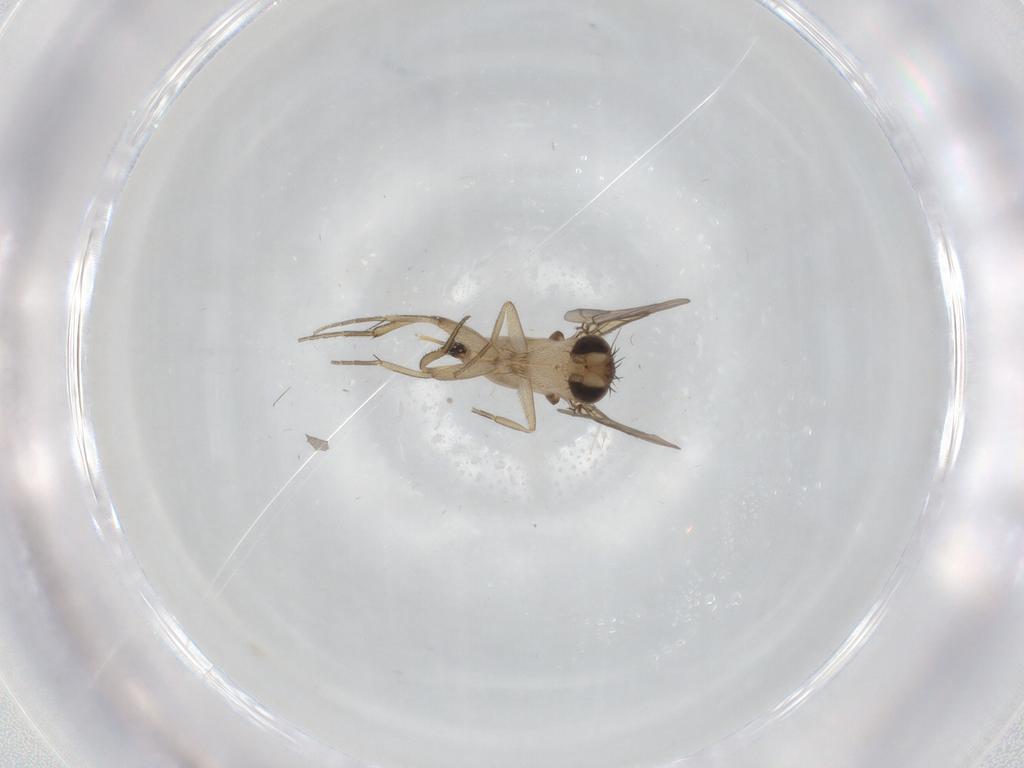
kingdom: Animalia
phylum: Arthropoda
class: Insecta
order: Diptera
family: Phoridae
